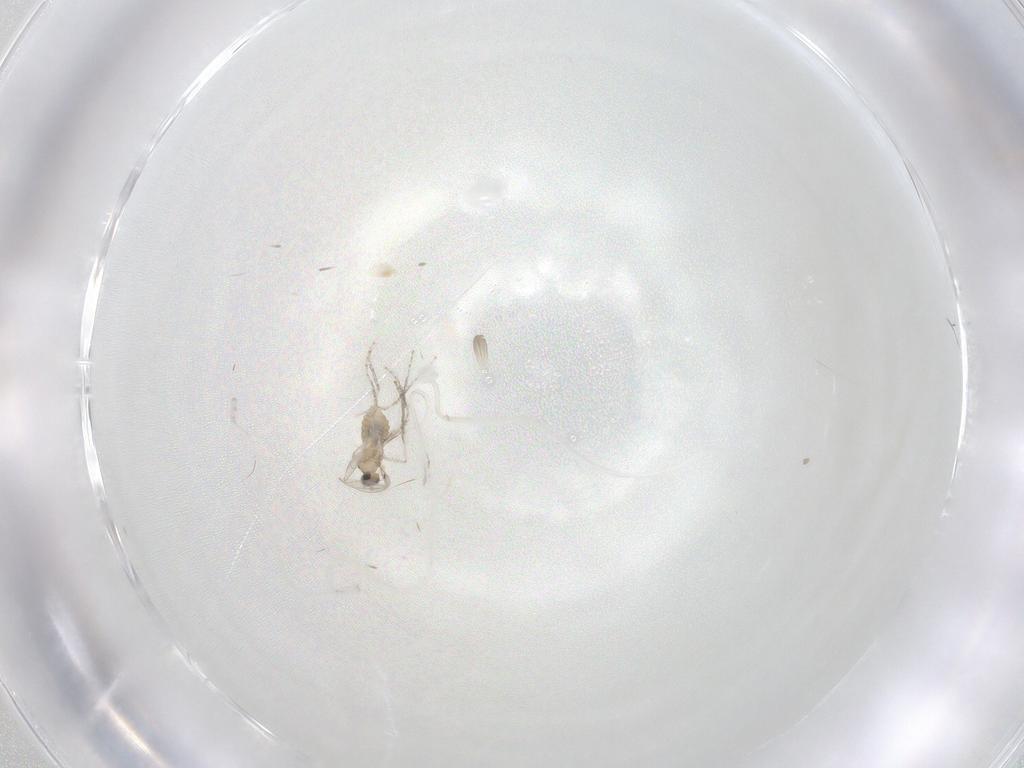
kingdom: Animalia
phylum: Arthropoda
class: Insecta
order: Diptera
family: Cecidomyiidae
